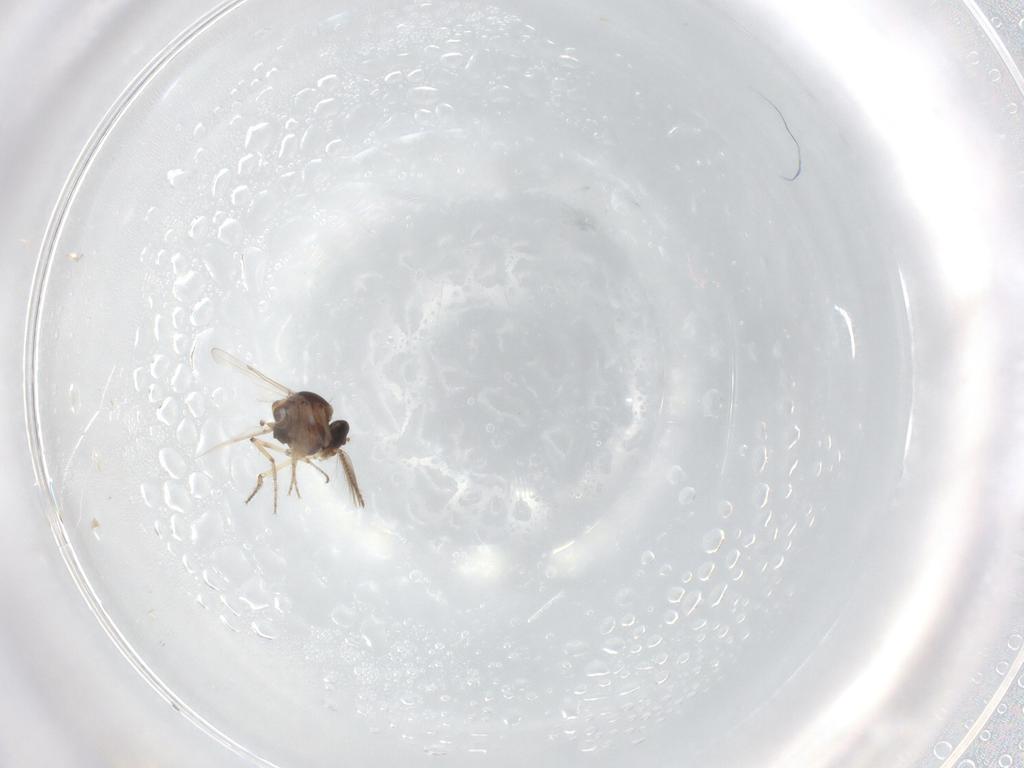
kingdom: Animalia
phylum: Arthropoda
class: Insecta
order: Diptera
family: Ceratopogonidae
